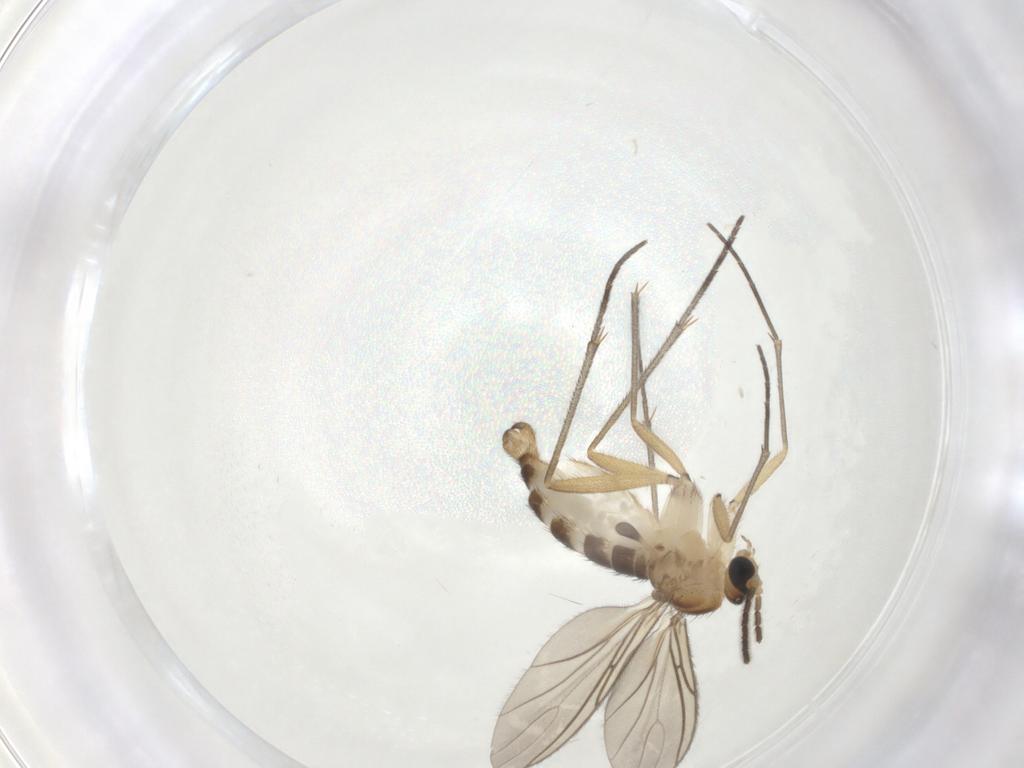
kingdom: Animalia
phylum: Arthropoda
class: Insecta
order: Diptera
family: Sciaridae
